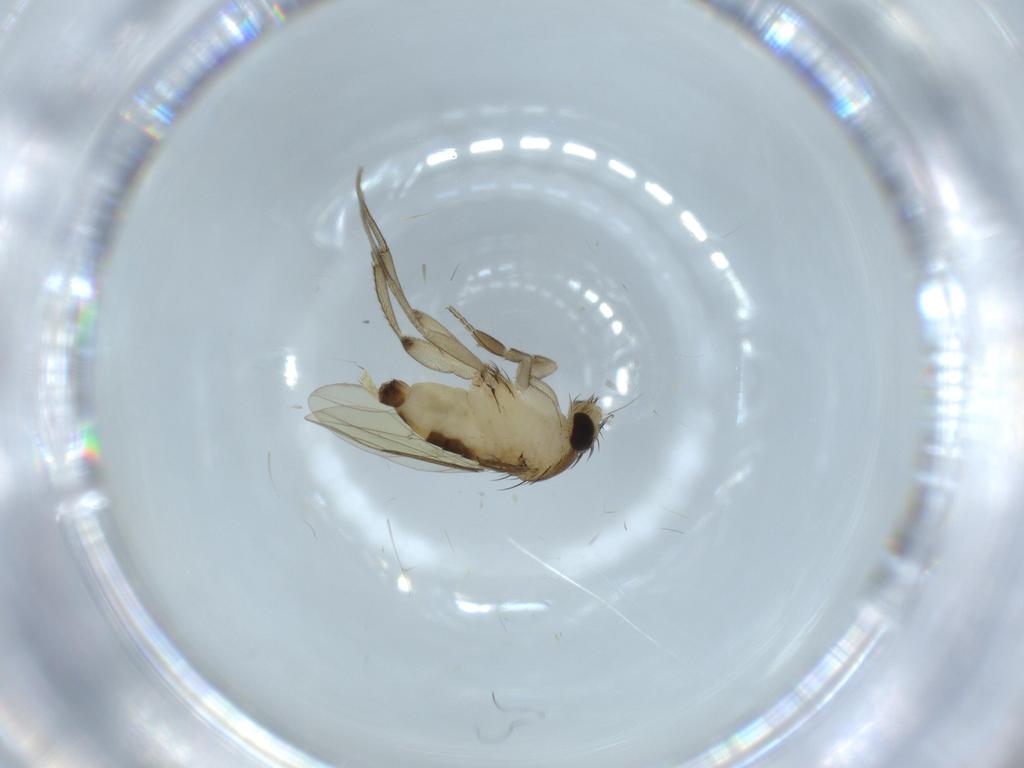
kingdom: Animalia
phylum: Arthropoda
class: Insecta
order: Diptera
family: Phoridae
